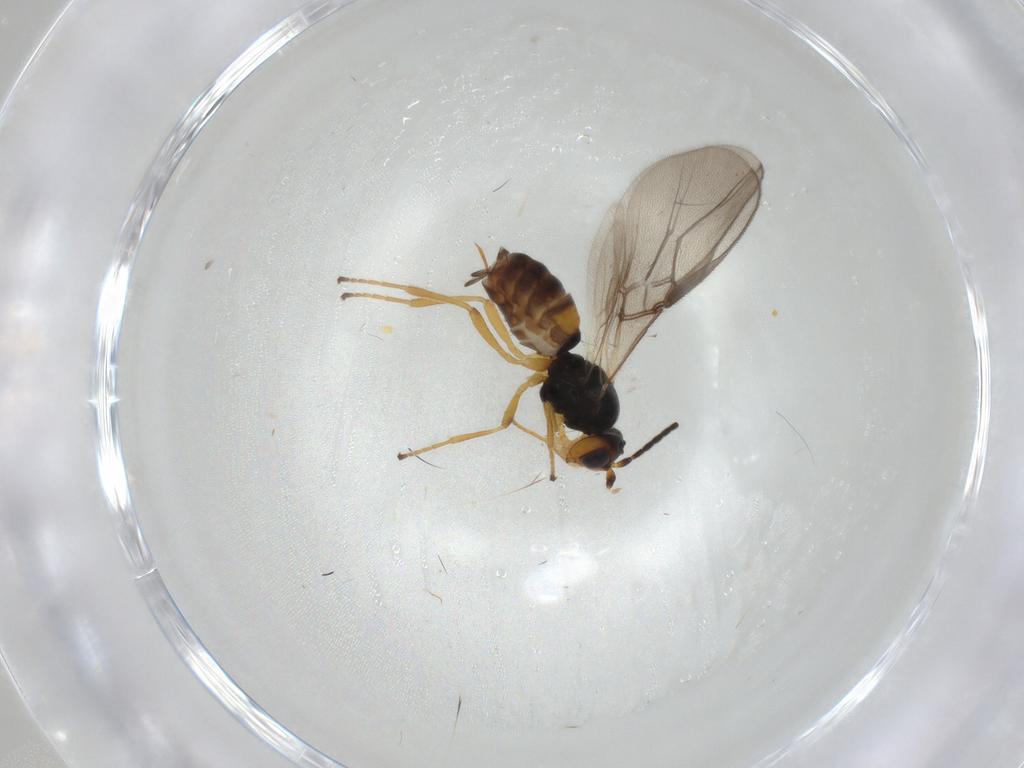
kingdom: Animalia
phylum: Arthropoda
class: Insecta
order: Hymenoptera
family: Braconidae
